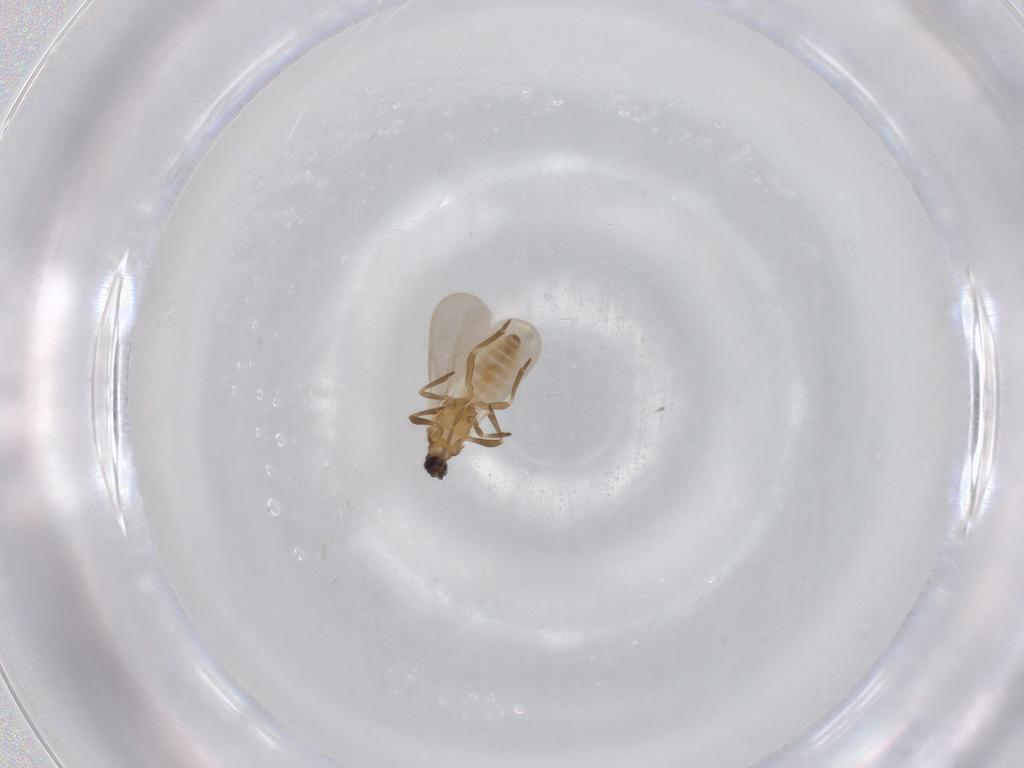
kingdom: Animalia
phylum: Arthropoda
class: Insecta
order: Hemiptera
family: Enicocephalidae
